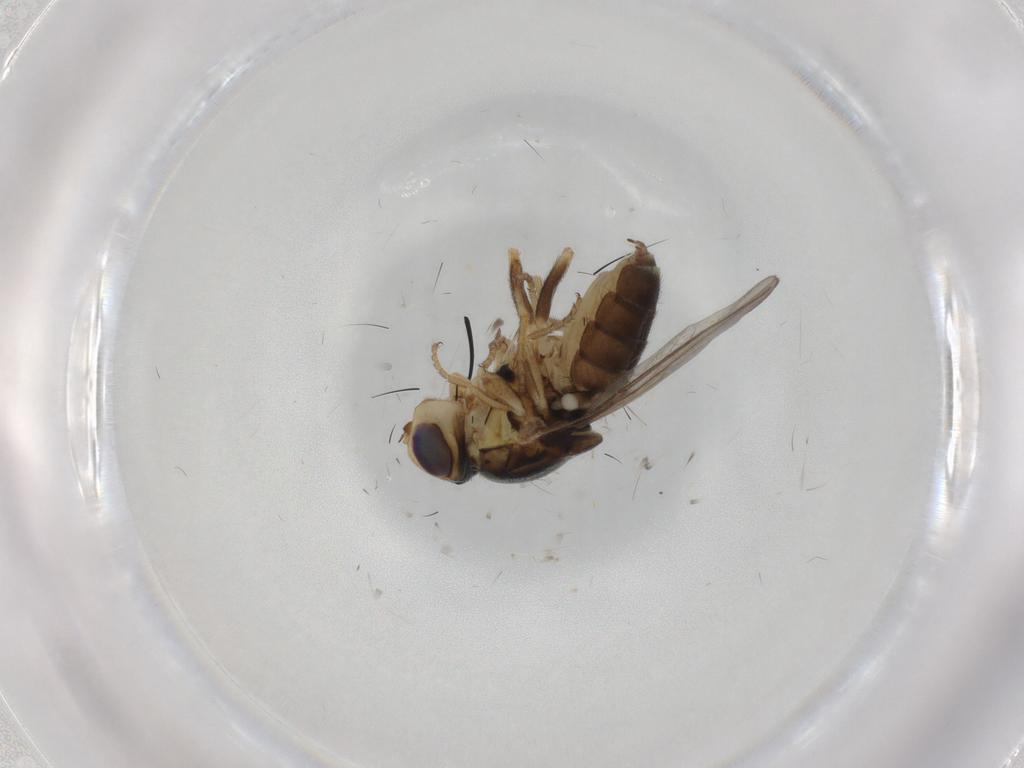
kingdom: Animalia
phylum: Arthropoda
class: Insecta
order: Diptera
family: Chloropidae
